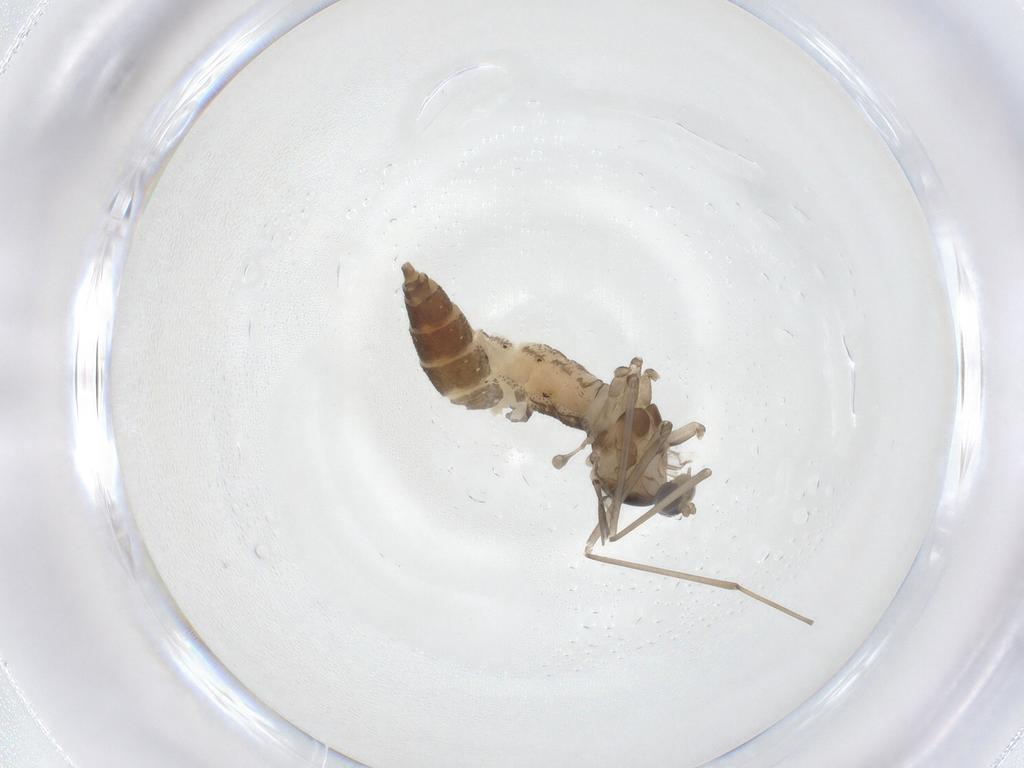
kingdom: Animalia
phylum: Arthropoda
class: Insecta
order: Diptera
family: Cecidomyiidae
